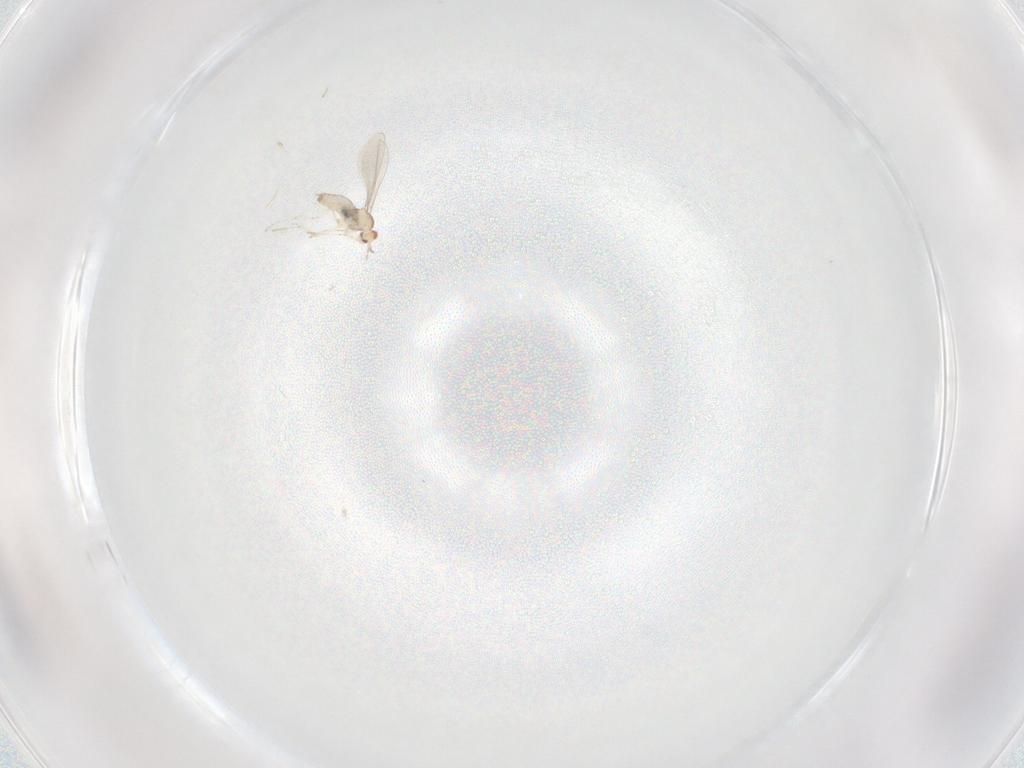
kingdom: Animalia
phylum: Arthropoda
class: Insecta
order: Diptera
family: Cecidomyiidae
